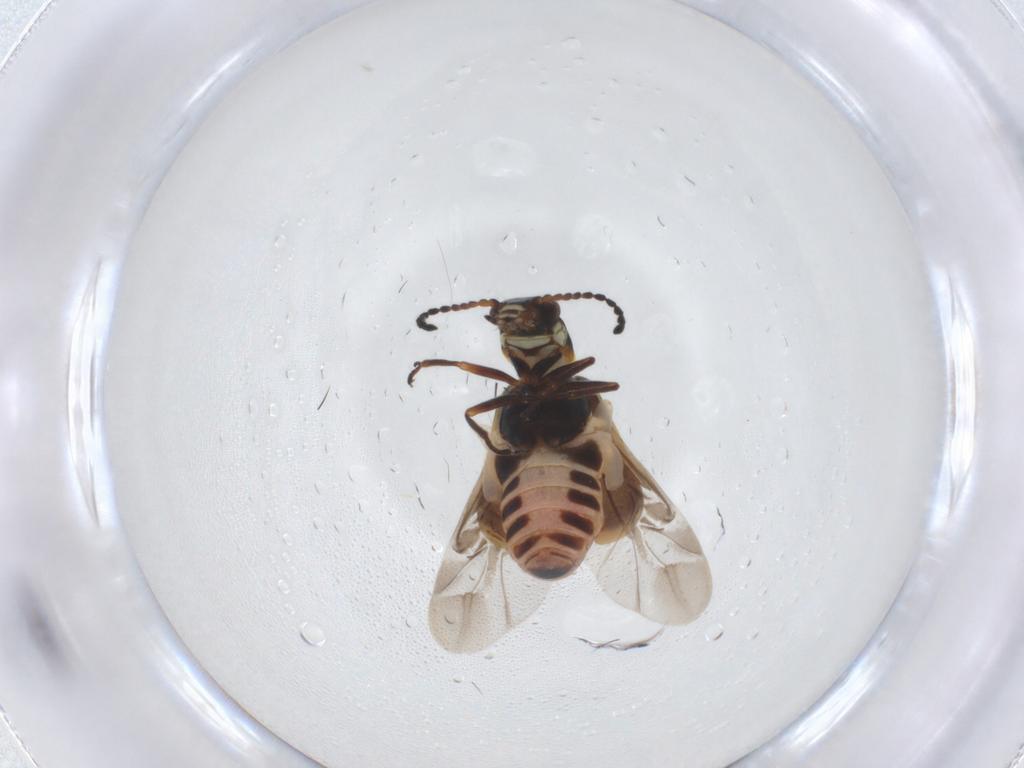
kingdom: Animalia
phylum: Arthropoda
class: Insecta
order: Coleoptera
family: Melyridae
